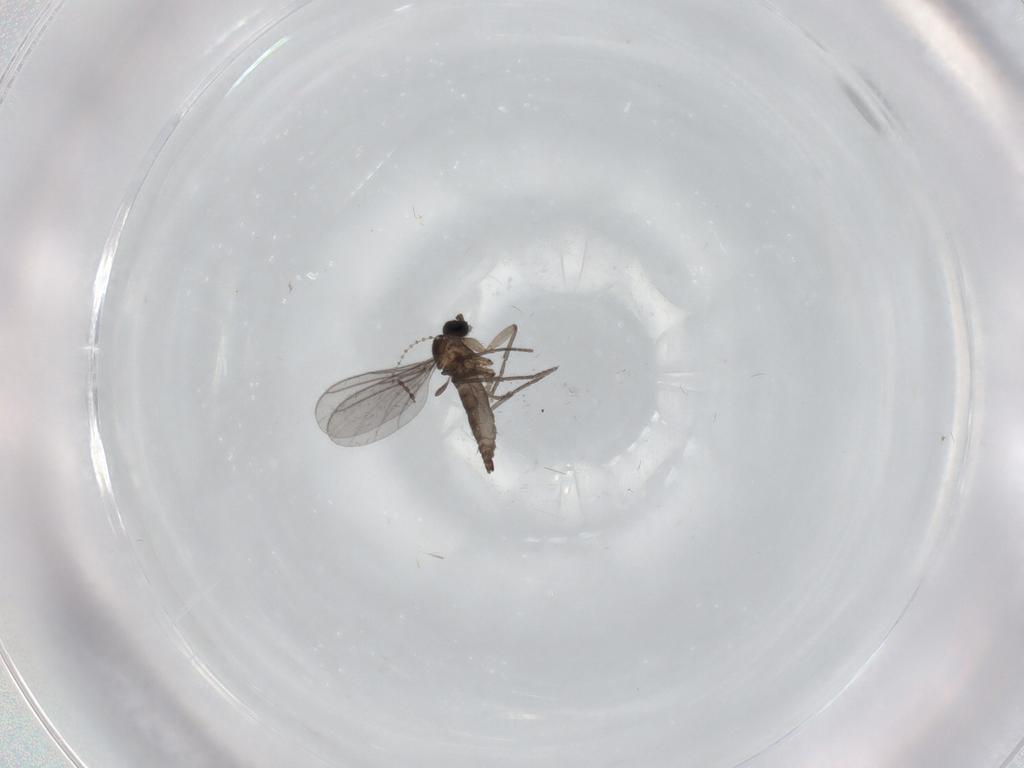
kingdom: Animalia
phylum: Arthropoda
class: Insecta
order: Diptera
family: Cecidomyiidae
